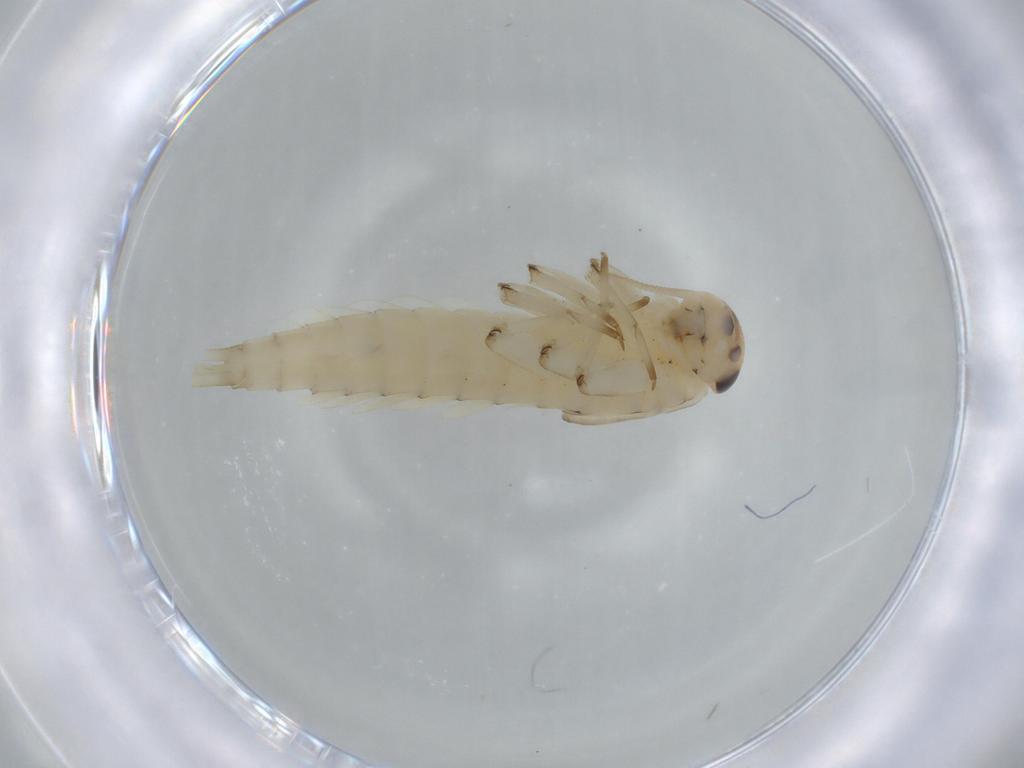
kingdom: Animalia
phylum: Arthropoda
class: Insecta
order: Ephemeroptera
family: Baetidae
